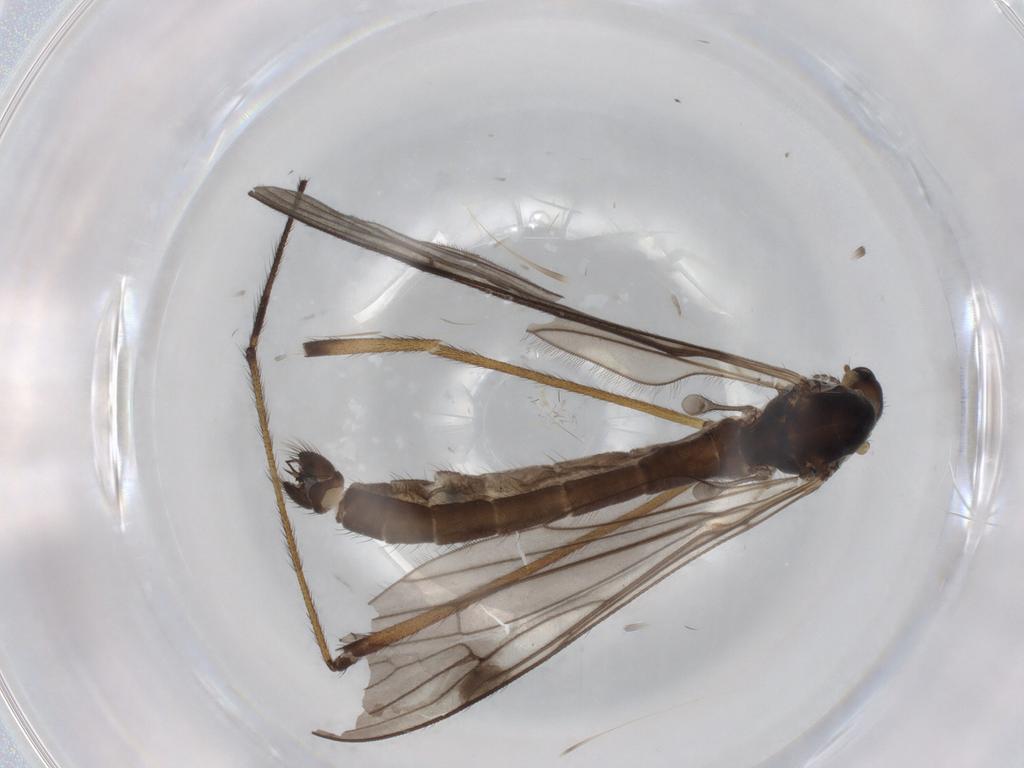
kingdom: Animalia
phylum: Arthropoda
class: Insecta
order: Diptera
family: Limoniidae
